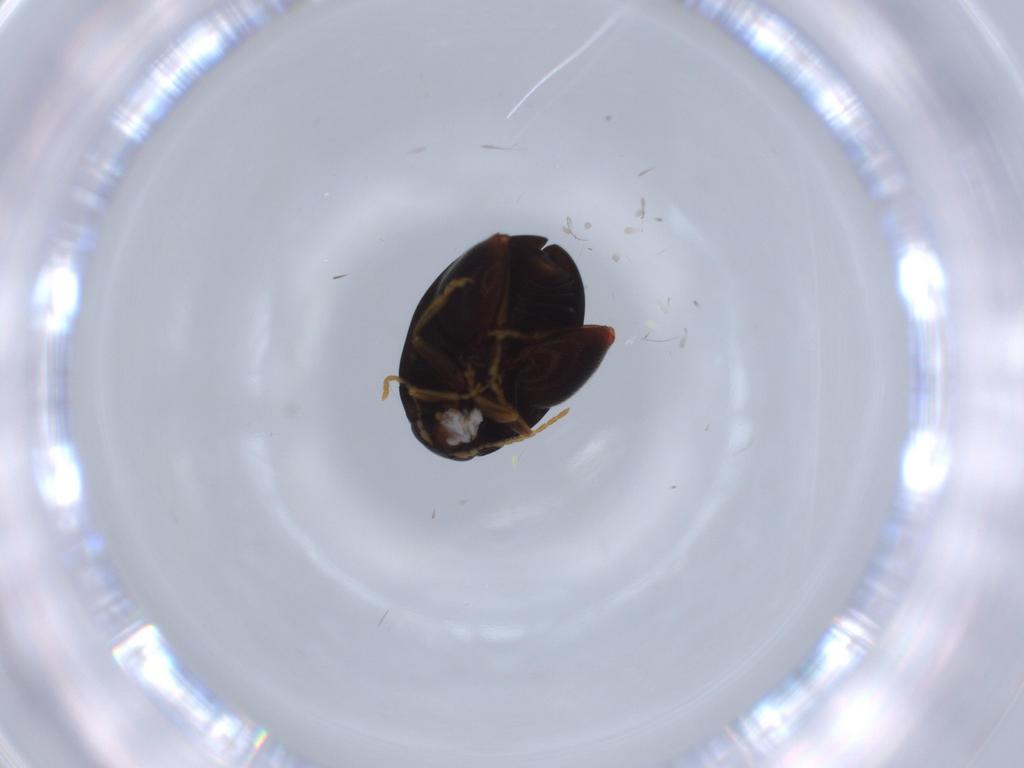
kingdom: Animalia
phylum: Arthropoda
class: Insecta
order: Coleoptera
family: Chrysomelidae
